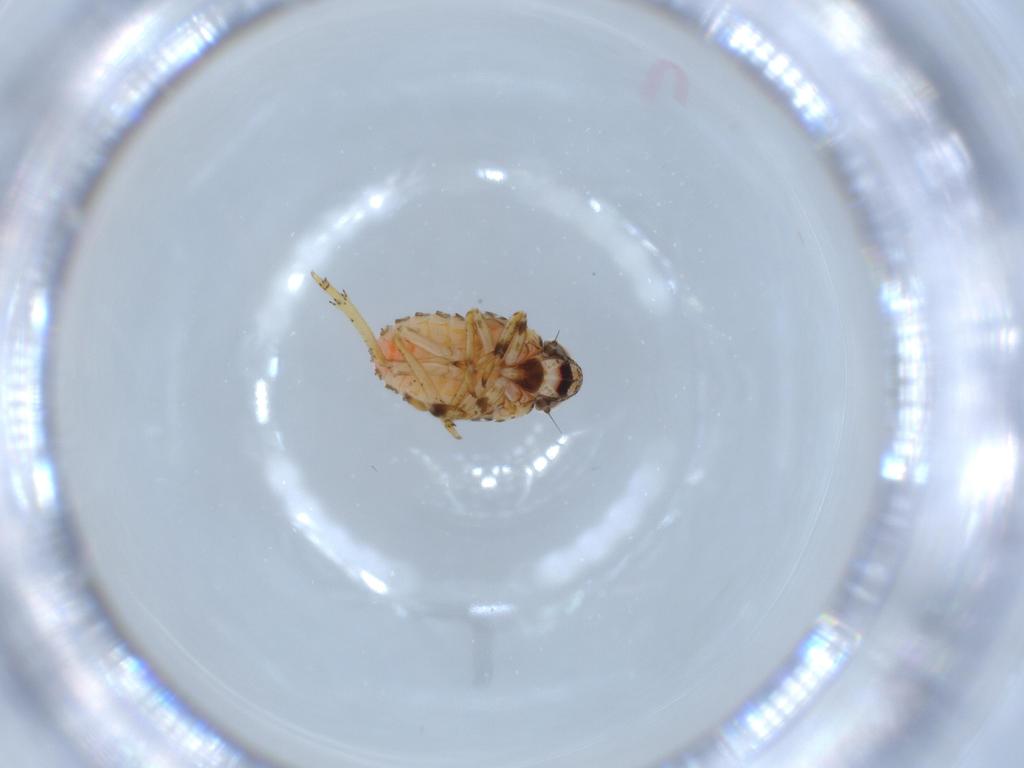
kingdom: Animalia
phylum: Arthropoda
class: Insecta
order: Hemiptera
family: Issidae
